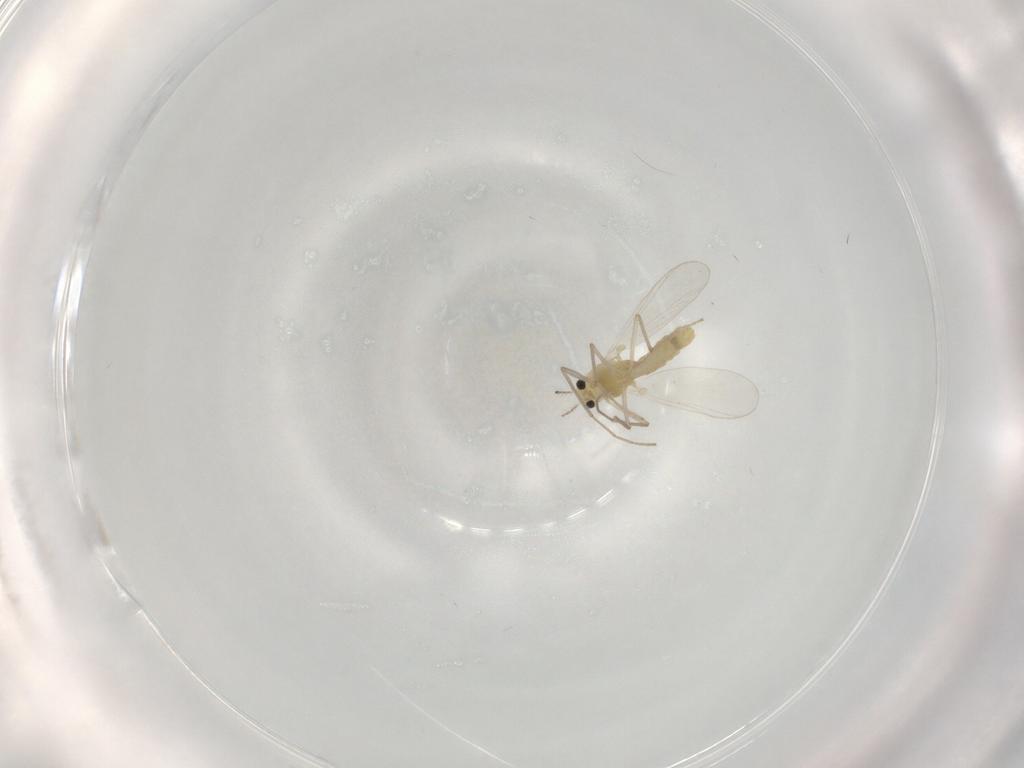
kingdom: Animalia
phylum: Arthropoda
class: Insecta
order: Diptera
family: Chironomidae
